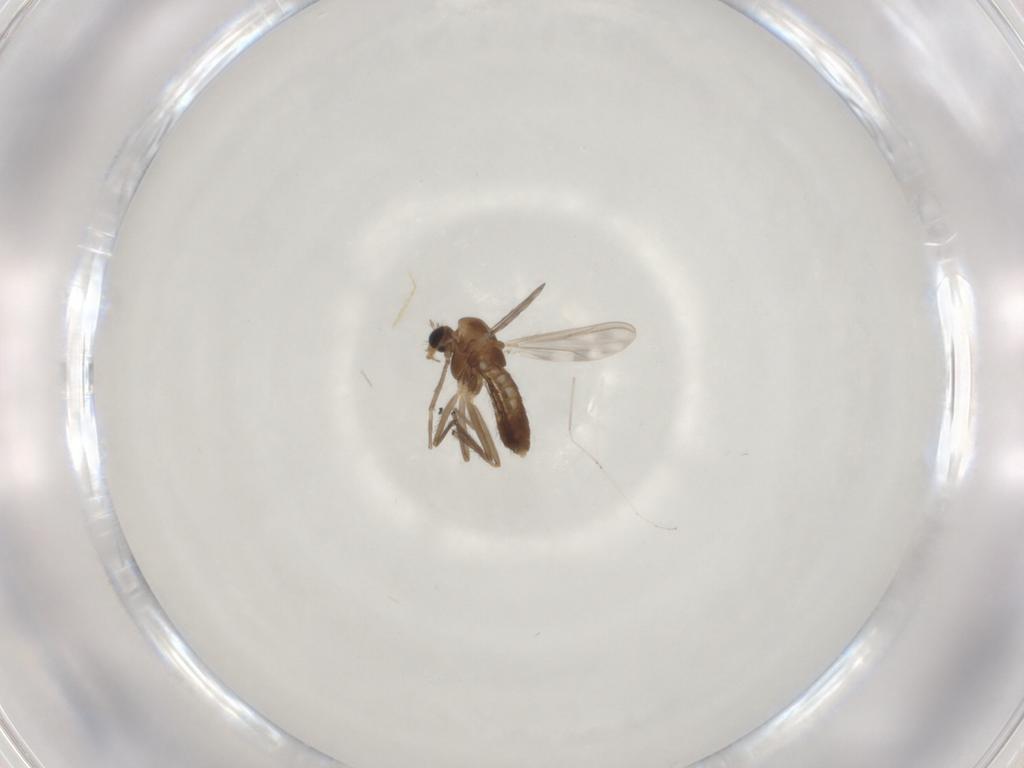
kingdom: Animalia
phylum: Arthropoda
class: Insecta
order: Diptera
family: Chironomidae
